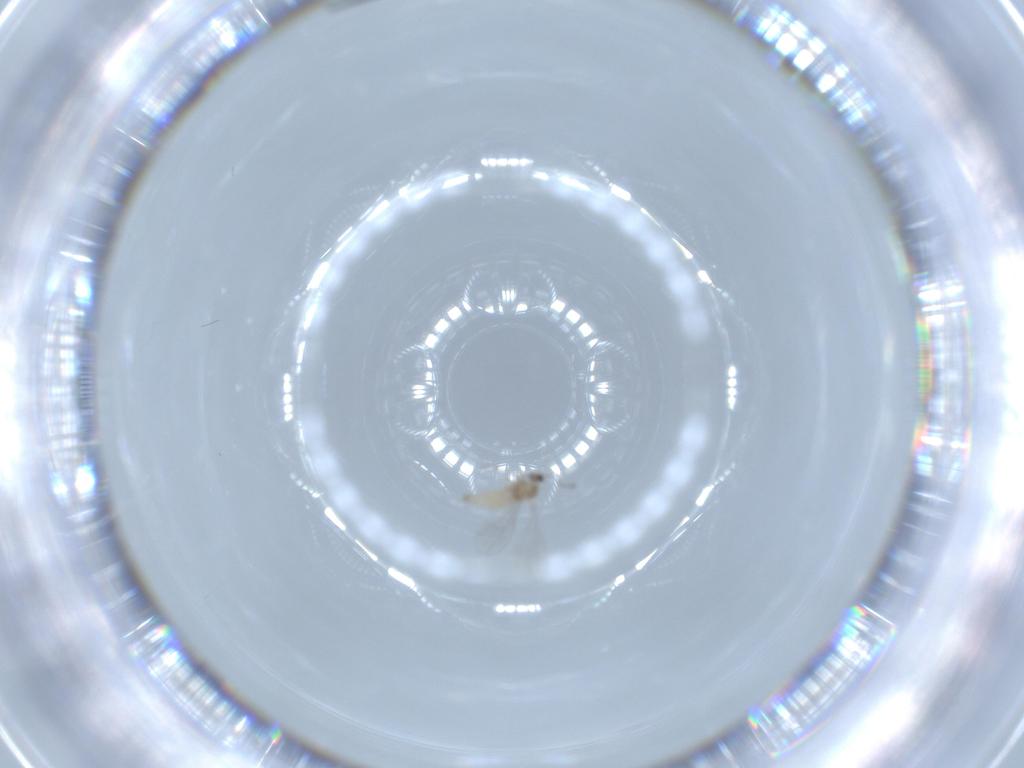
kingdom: Animalia
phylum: Arthropoda
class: Insecta
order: Diptera
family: Cecidomyiidae
